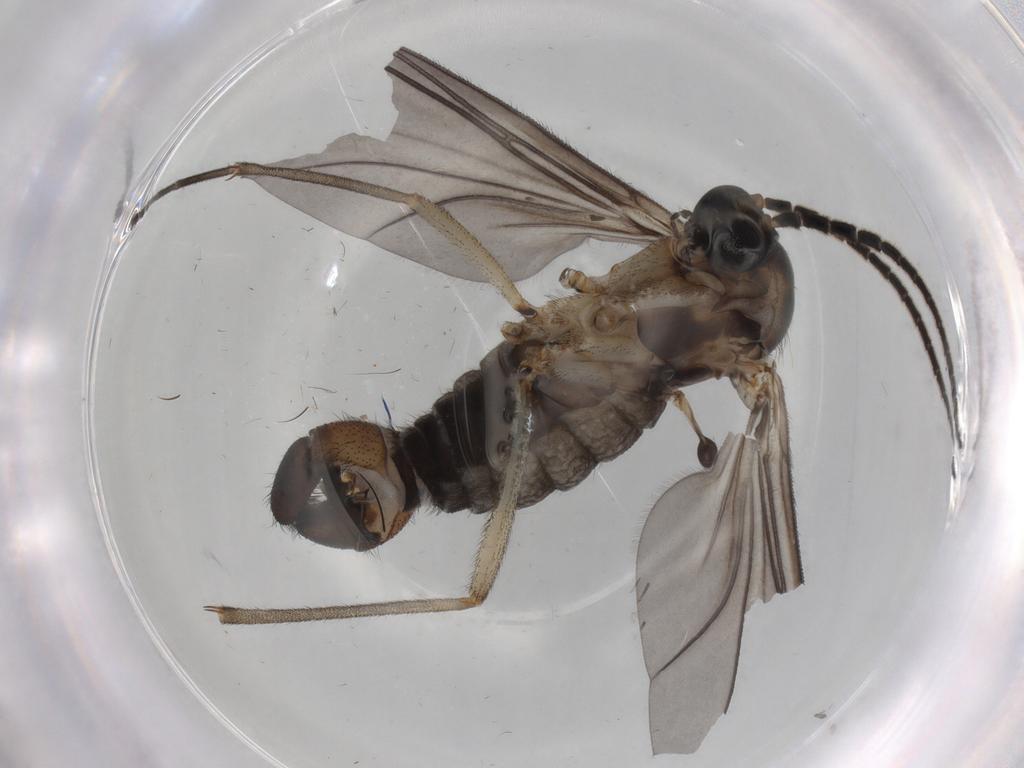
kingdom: Animalia
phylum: Arthropoda
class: Insecta
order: Diptera
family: Sciaridae
